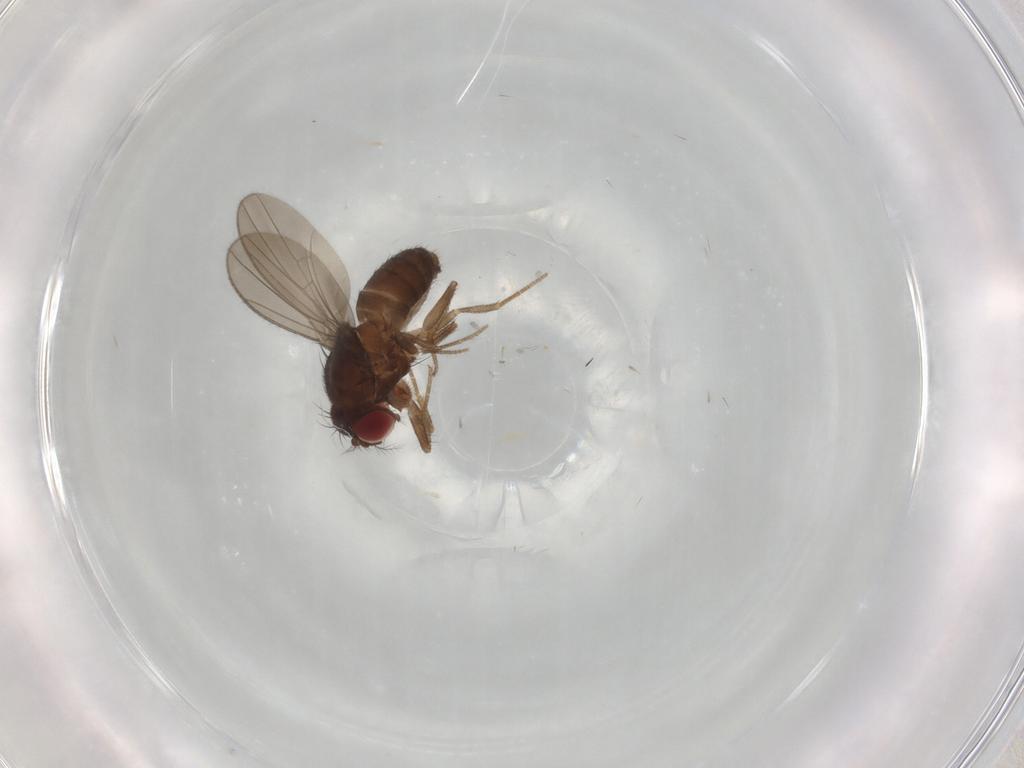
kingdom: Animalia
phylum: Arthropoda
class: Insecta
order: Diptera
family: Drosophilidae
